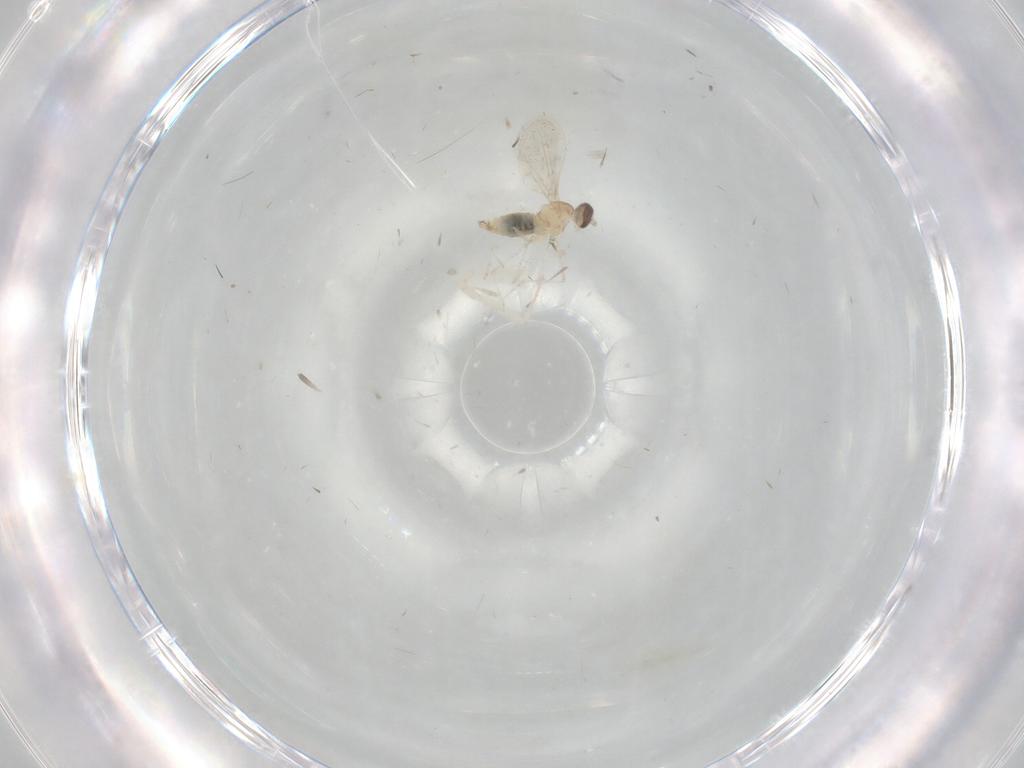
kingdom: Animalia
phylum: Arthropoda
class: Insecta
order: Diptera
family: Cecidomyiidae
